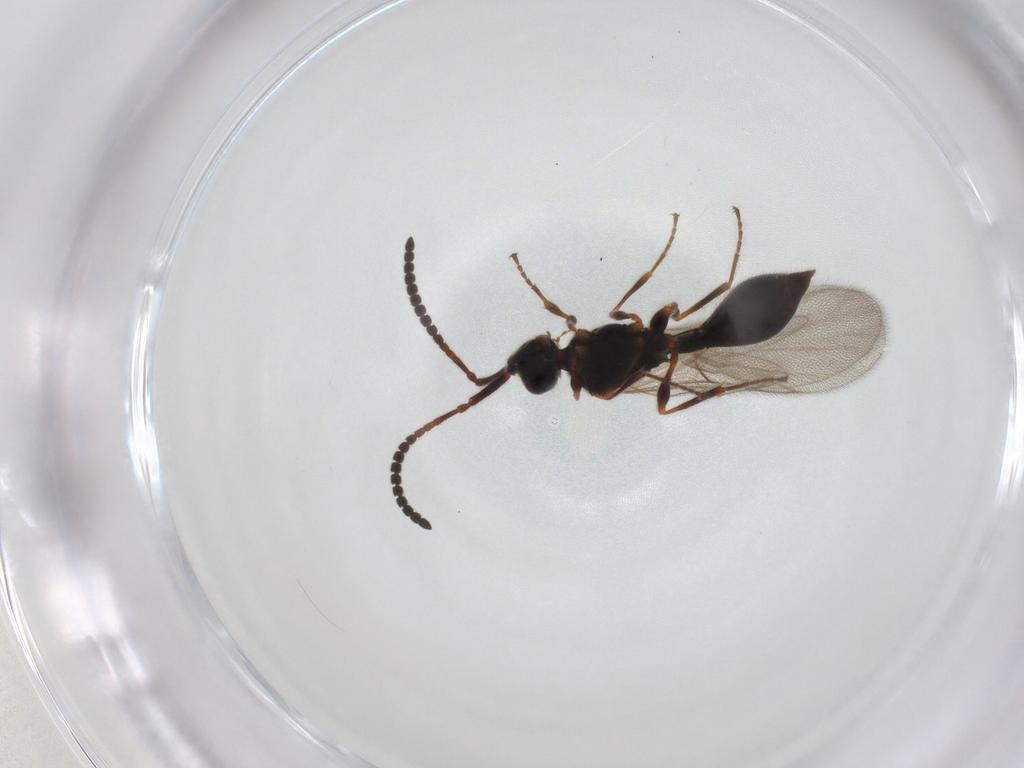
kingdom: Animalia
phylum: Arthropoda
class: Insecta
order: Hymenoptera
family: Diapriidae
